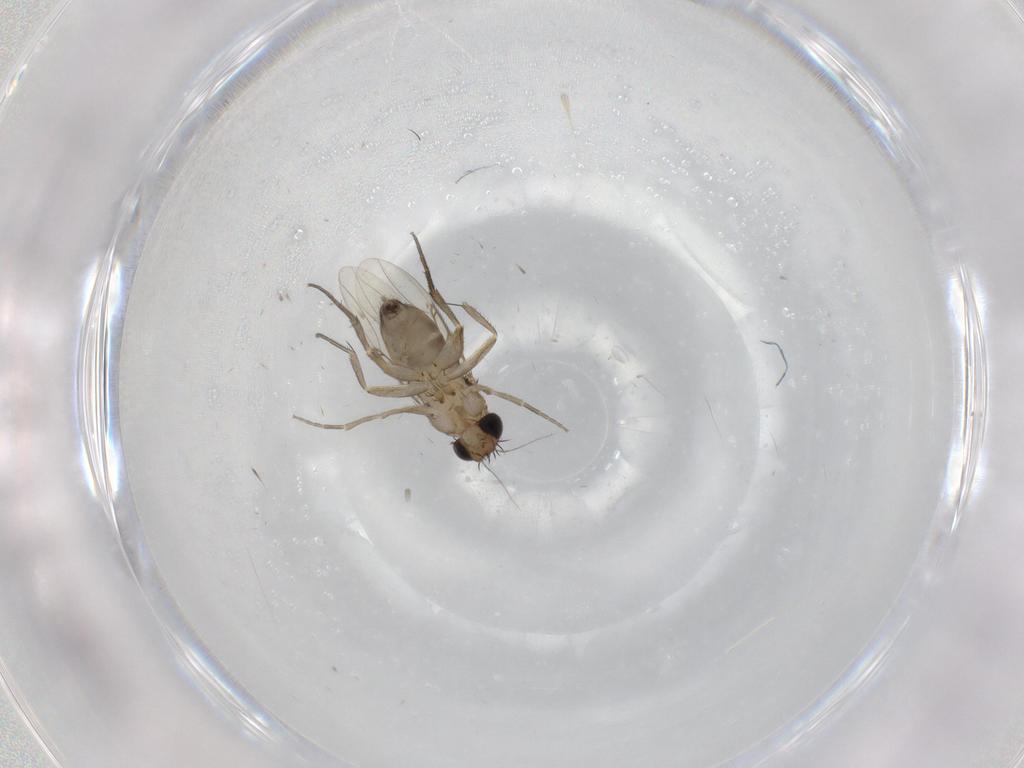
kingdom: Animalia
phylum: Arthropoda
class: Insecta
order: Diptera
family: Phoridae
